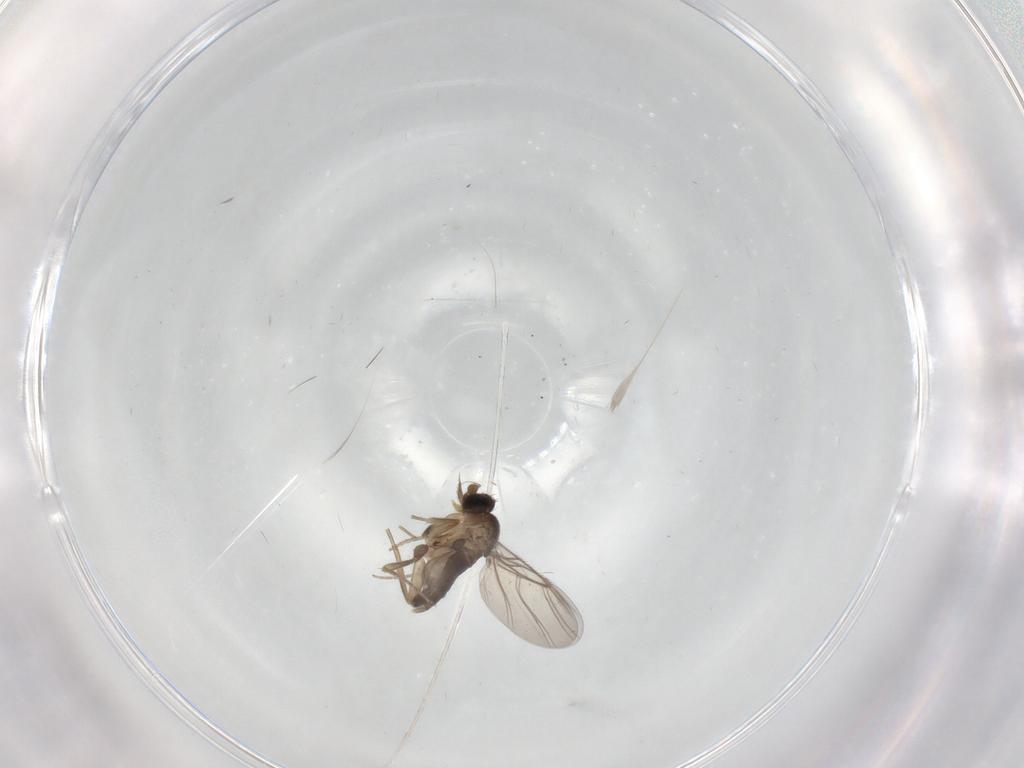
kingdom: Animalia
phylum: Arthropoda
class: Insecta
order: Diptera
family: Phoridae
